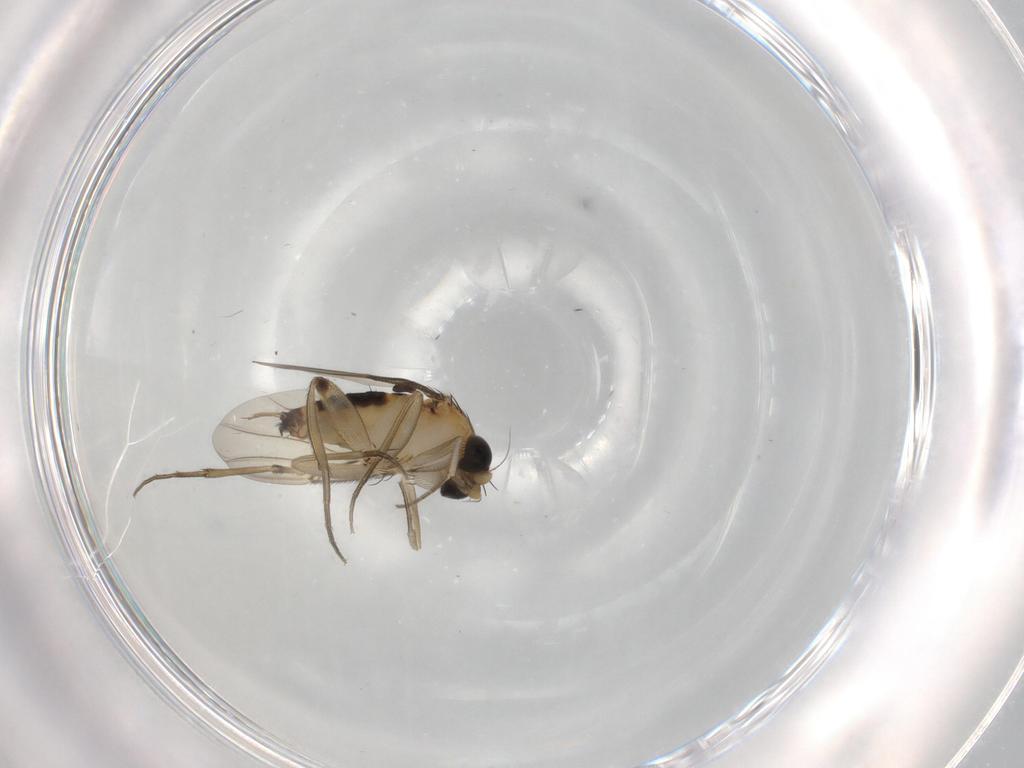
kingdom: Animalia
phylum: Arthropoda
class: Insecta
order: Diptera
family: Phoridae
